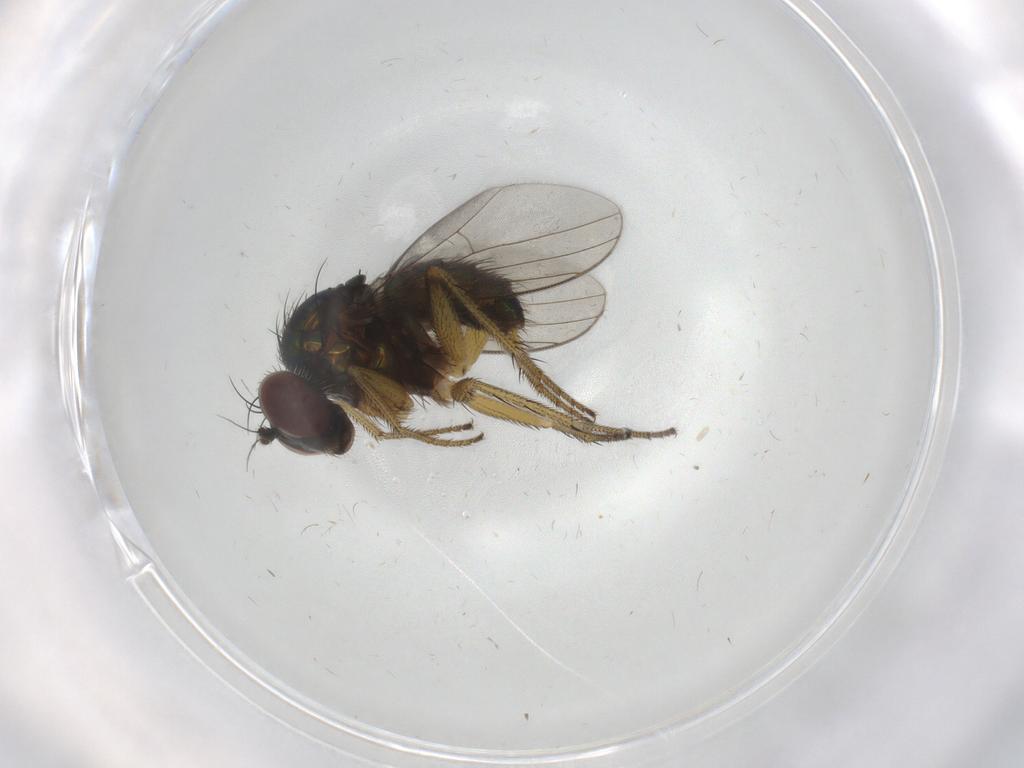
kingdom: Animalia
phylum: Arthropoda
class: Insecta
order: Diptera
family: Dolichopodidae
